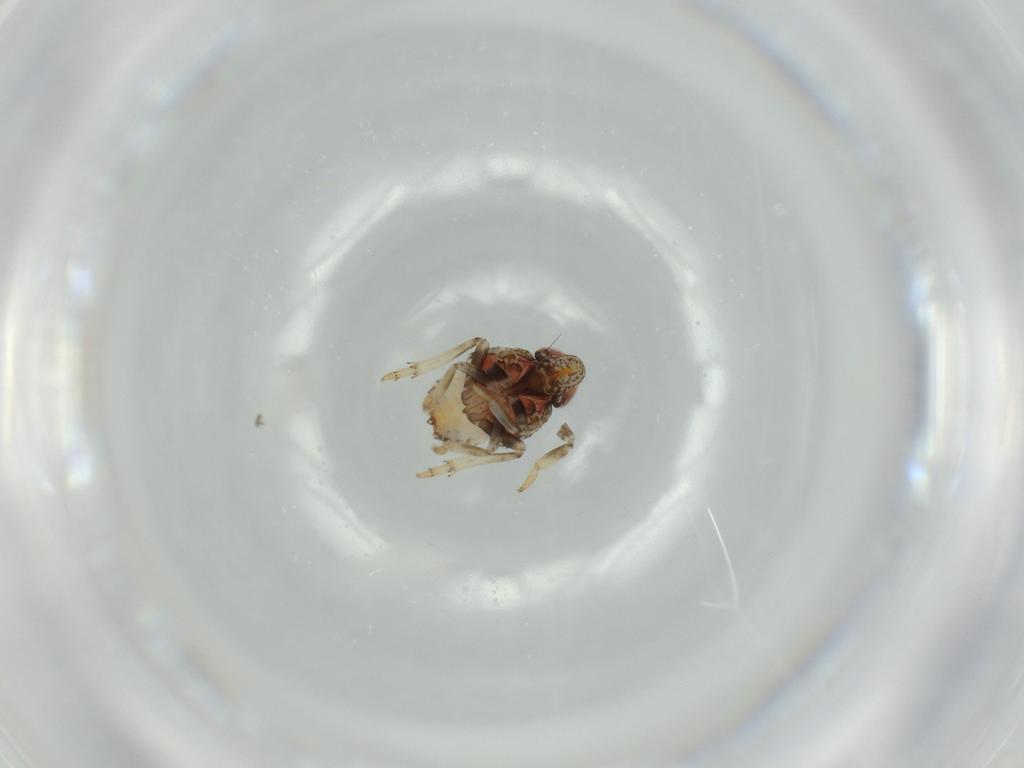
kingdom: Animalia
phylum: Arthropoda
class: Insecta
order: Hemiptera
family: Issidae
